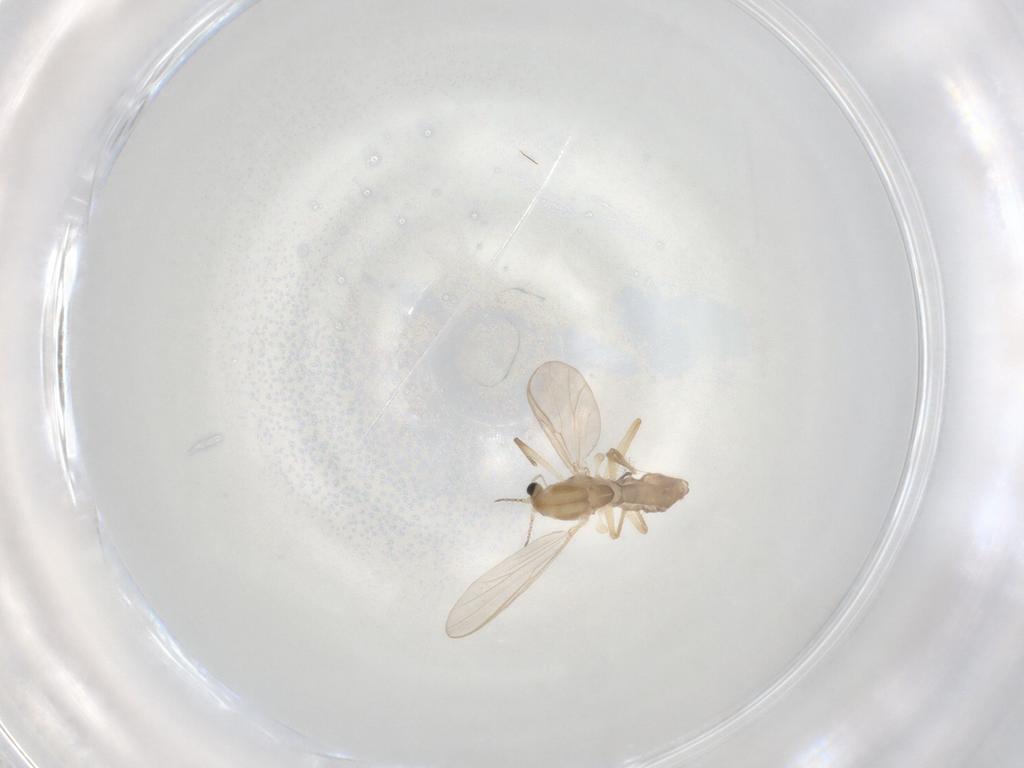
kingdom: Animalia
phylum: Arthropoda
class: Insecta
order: Diptera
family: Chironomidae
